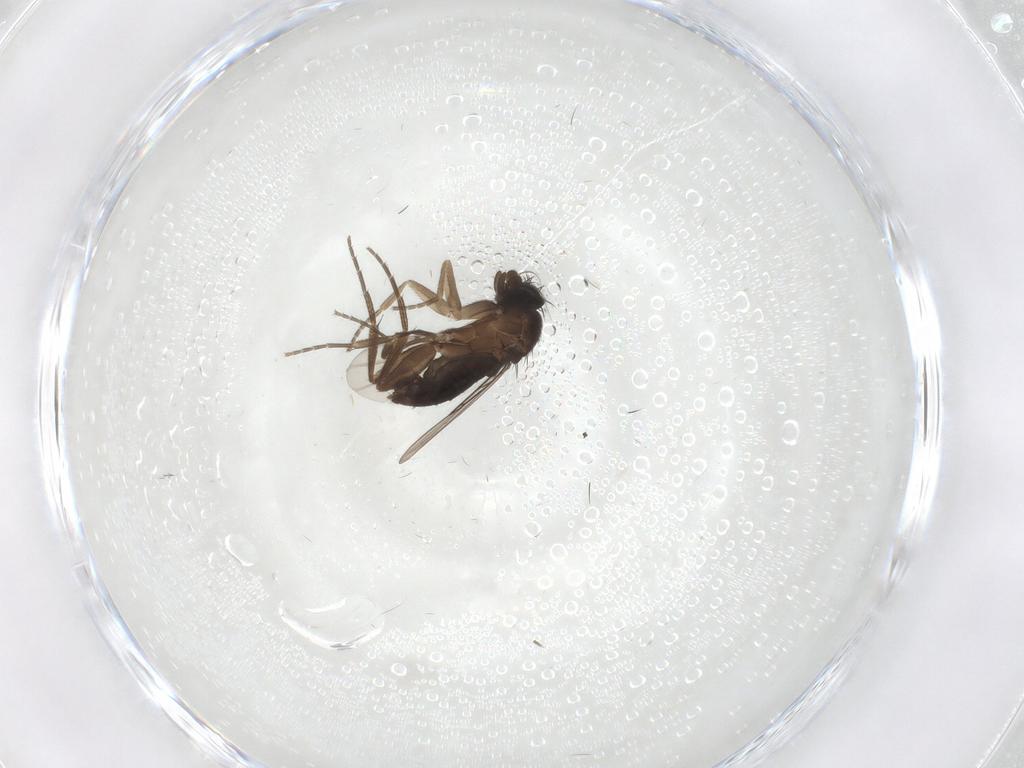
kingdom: Animalia
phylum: Arthropoda
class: Insecta
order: Diptera
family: Phoridae
